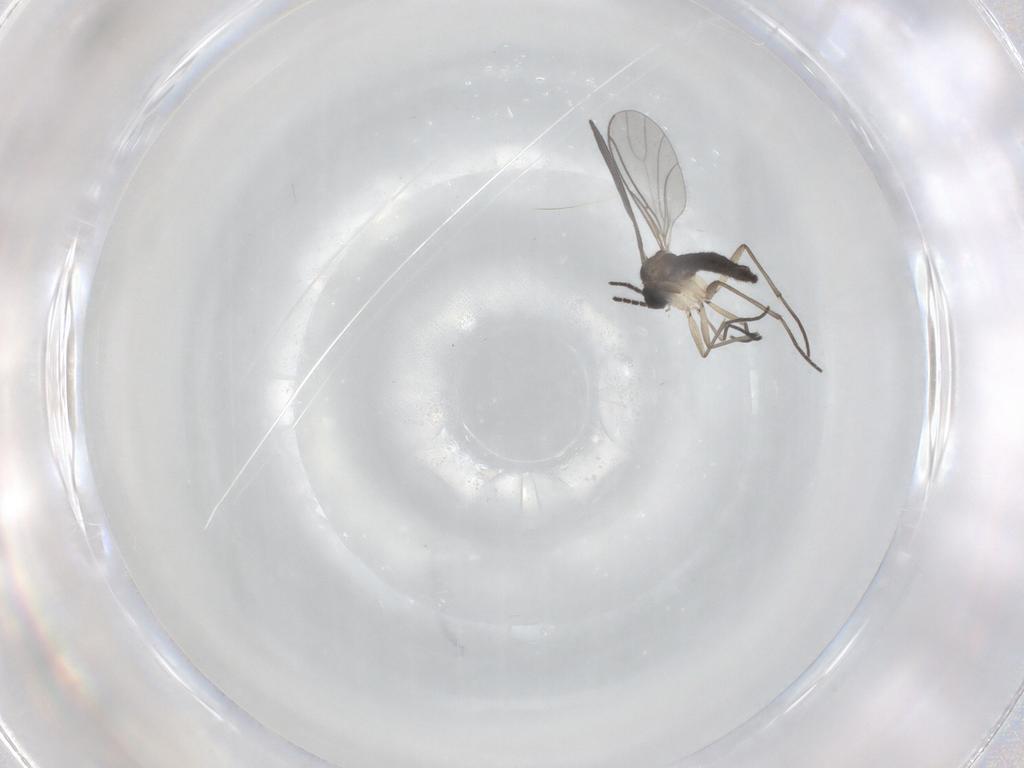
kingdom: Animalia
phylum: Arthropoda
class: Insecta
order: Diptera
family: Sciaridae
